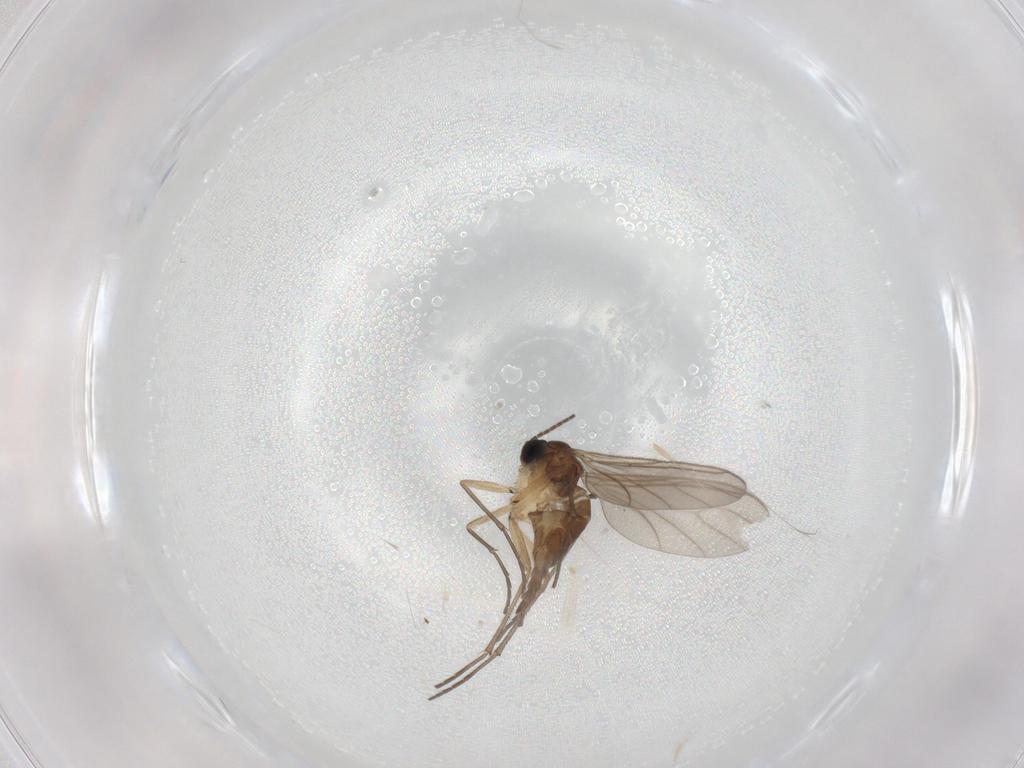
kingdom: Animalia
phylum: Arthropoda
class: Insecta
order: Diptera
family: Sciaridae
